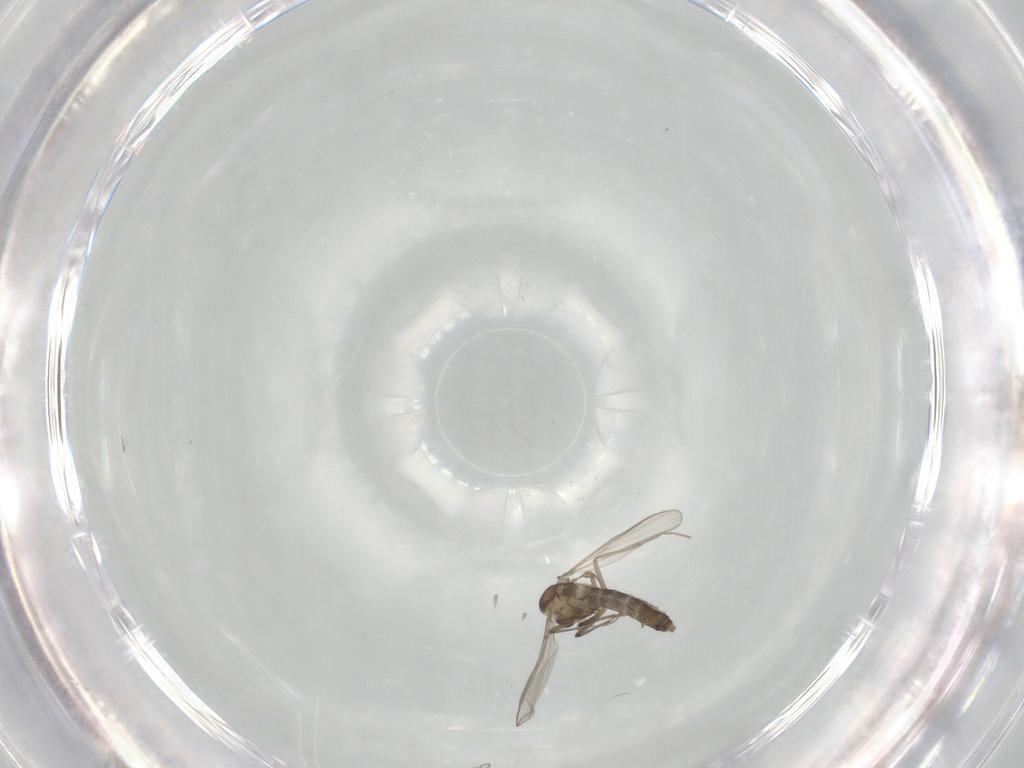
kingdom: Animalia
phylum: Arthropoda
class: Insecta
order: Diptera
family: Chironomidae
